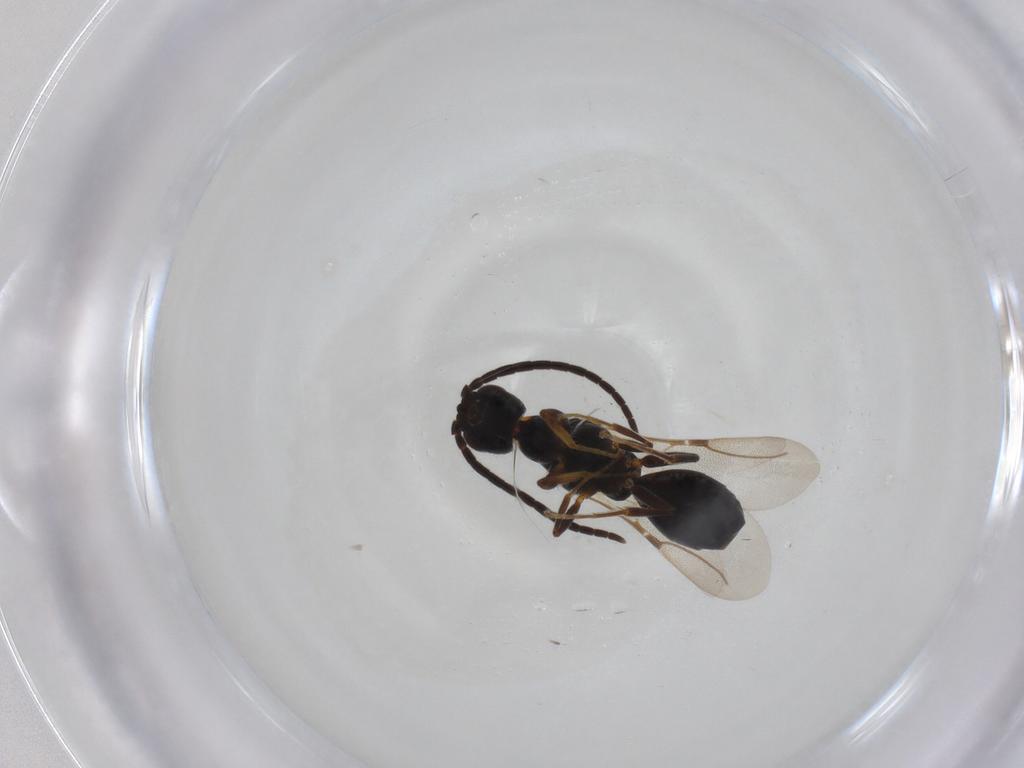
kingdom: Animalia
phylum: Arthropoda
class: Insecta
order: Hymenoptera
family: Bethylidae
